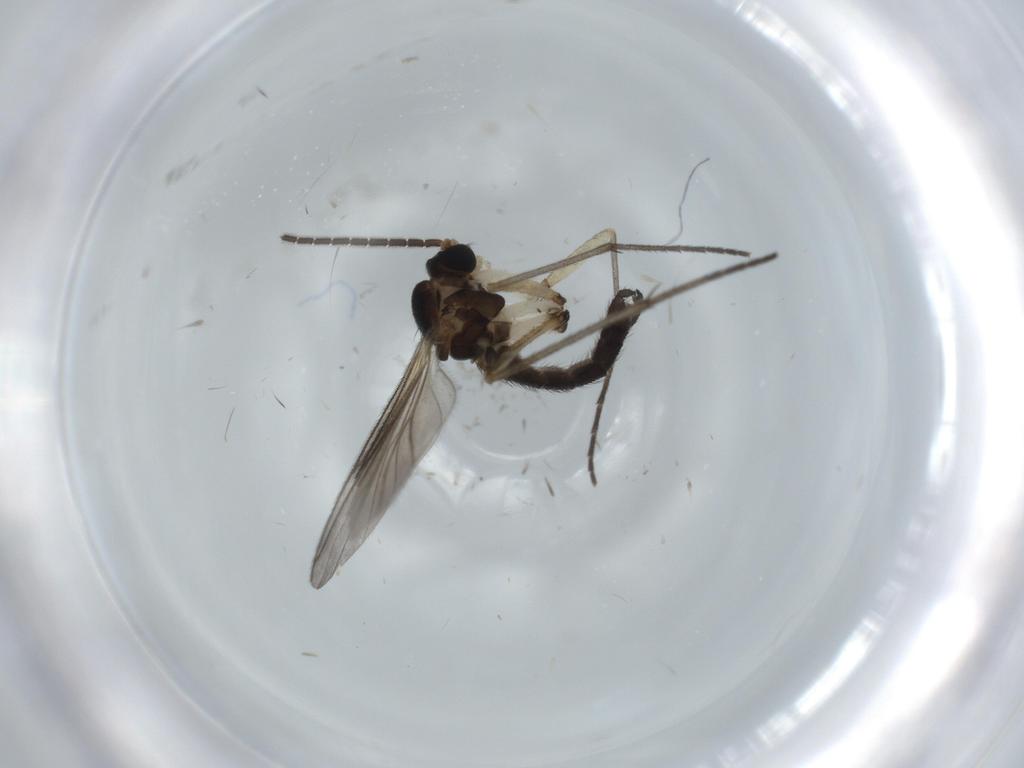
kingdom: Animalia
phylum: Arthropoda
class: Insecta
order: Diptera
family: Sciaridae
